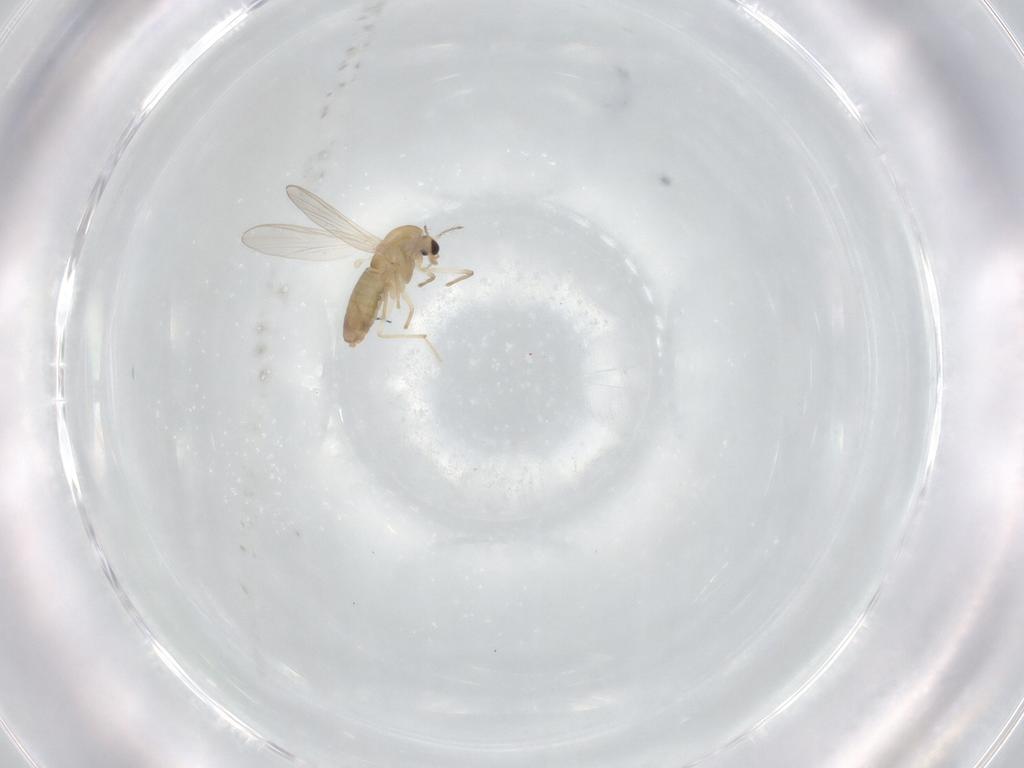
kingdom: Animalia
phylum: Arthropoda
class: Insecta
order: Diptera
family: Chironomidae
